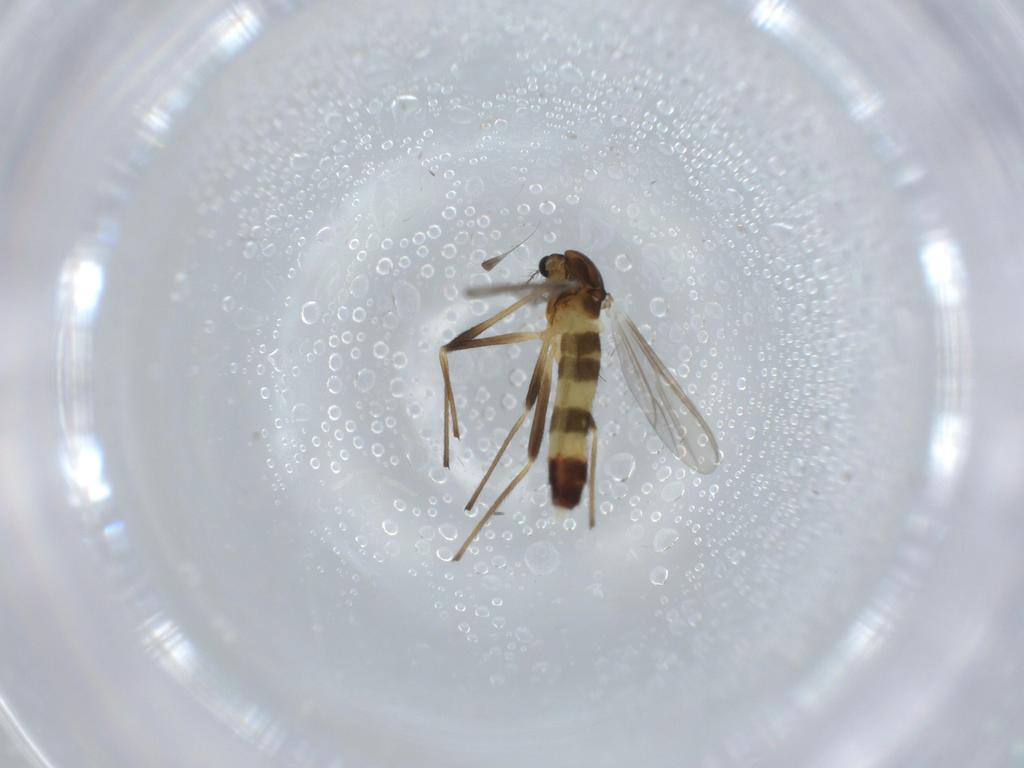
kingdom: Animalia
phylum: Arthropoda
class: Insecta
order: Diptera
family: Chironomidae
